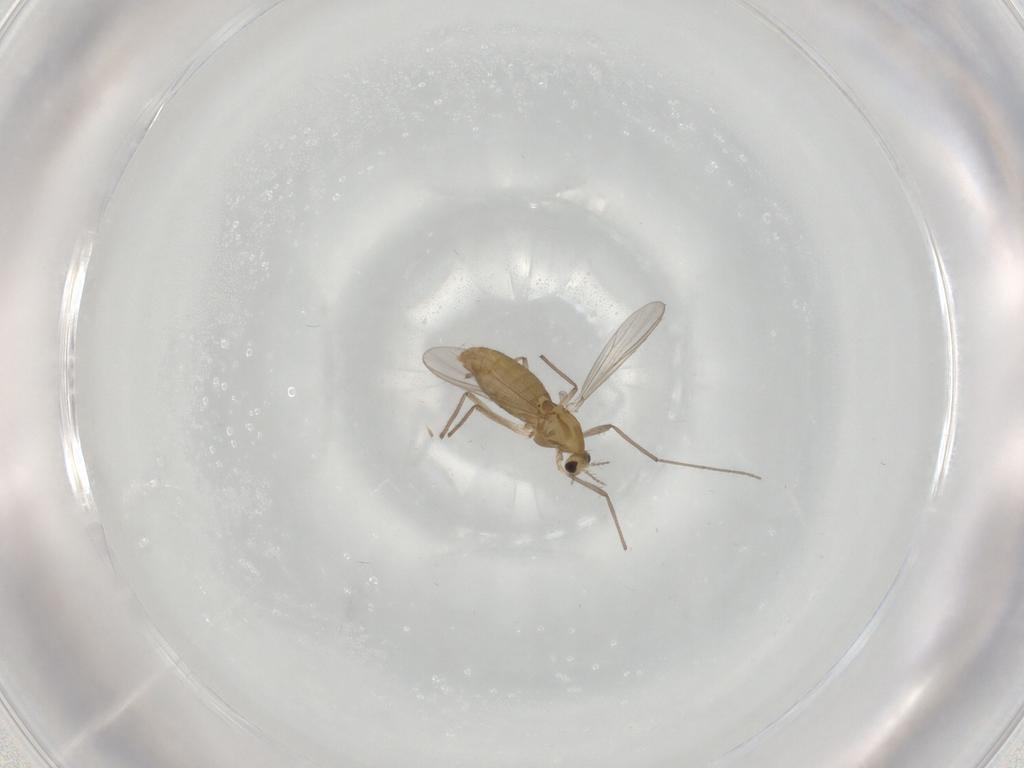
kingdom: Animalia
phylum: Arthropoda
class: Insecta
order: Diptera
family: Chironomidae
